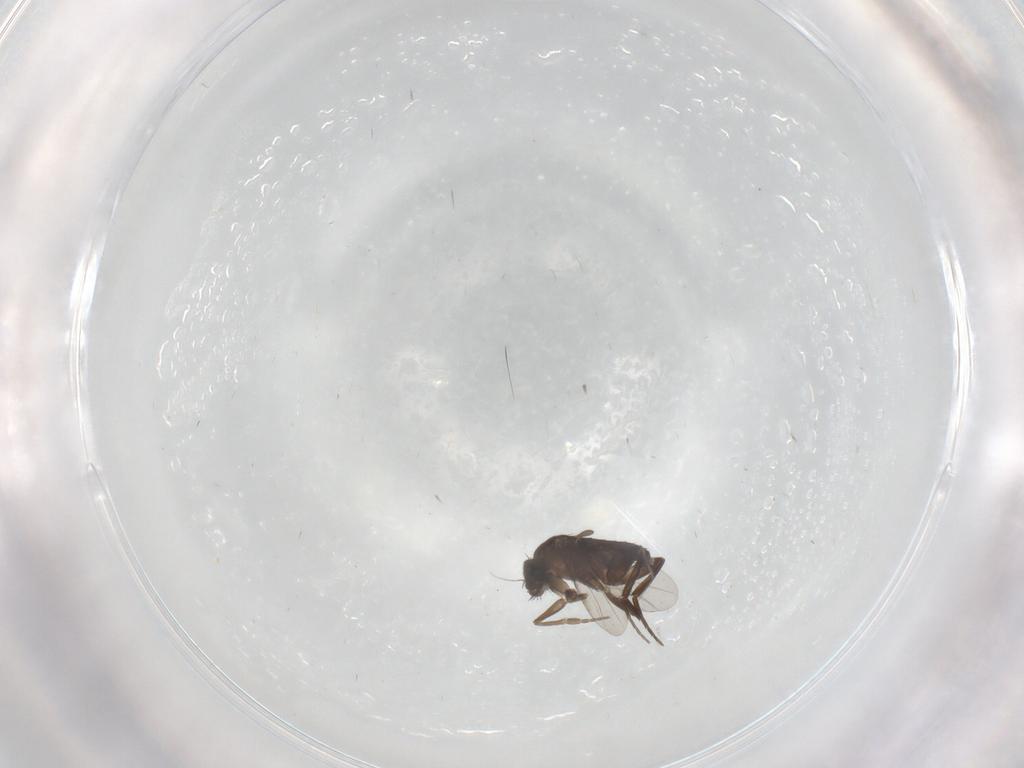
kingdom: Animalia
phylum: Arthropoda
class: Insecta
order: Diptera
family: Phoridae
